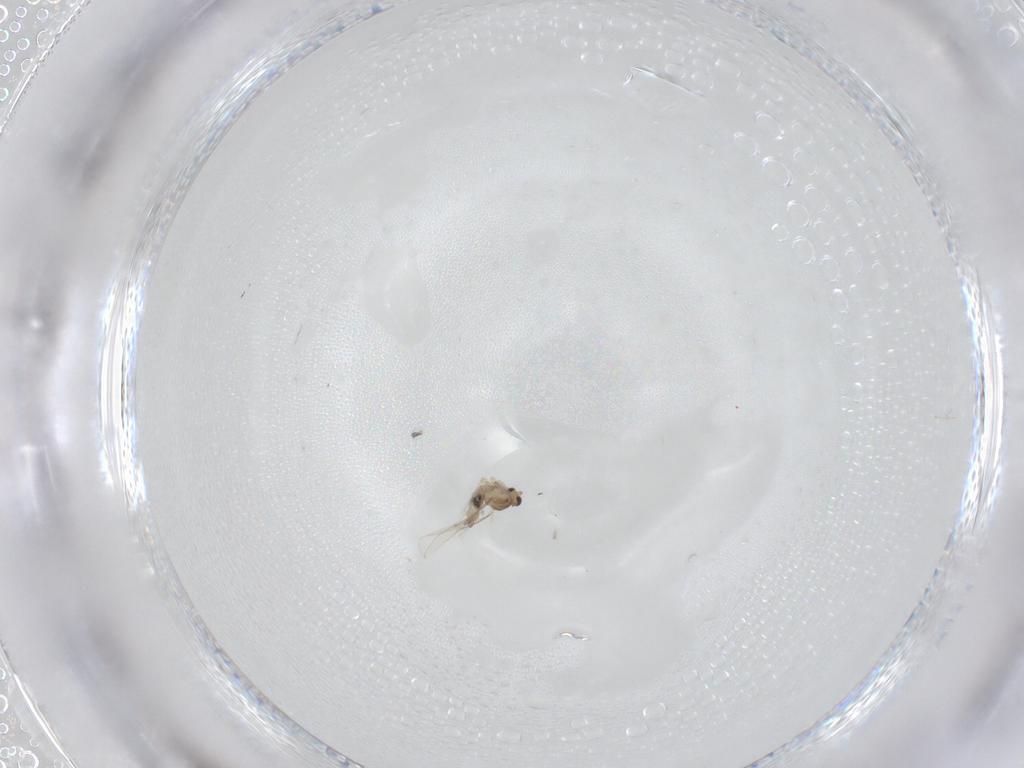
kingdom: Animalia
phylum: Arthropoda
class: Insecta
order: Diptera
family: Cecidomyiidae
